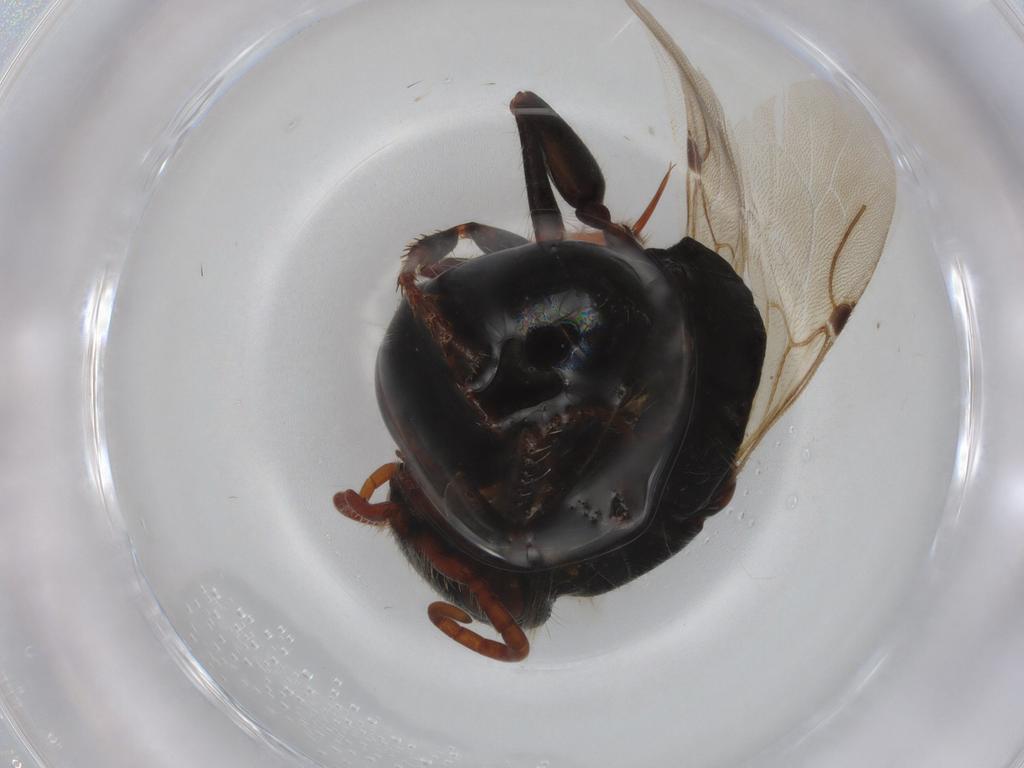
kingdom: Animalia
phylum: Arthropoda
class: Insecta
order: Hymenoptera
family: Bethylidae
